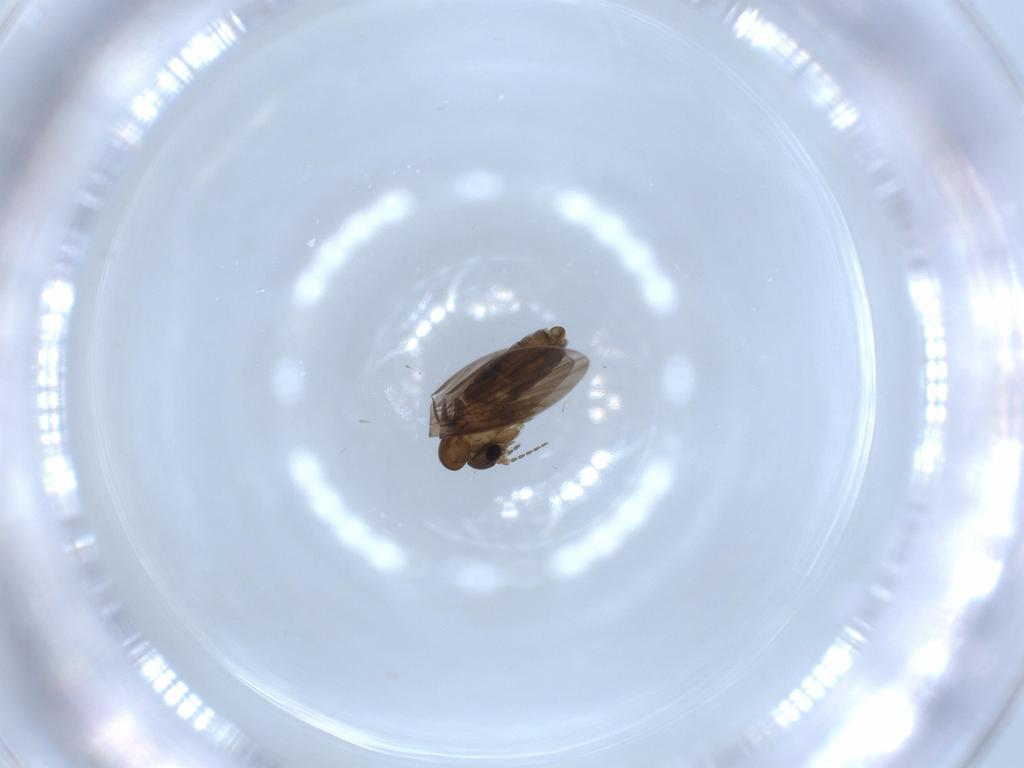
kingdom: Animalia
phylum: Arthropoda
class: Insecta
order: Diptera
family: Psychodidae
